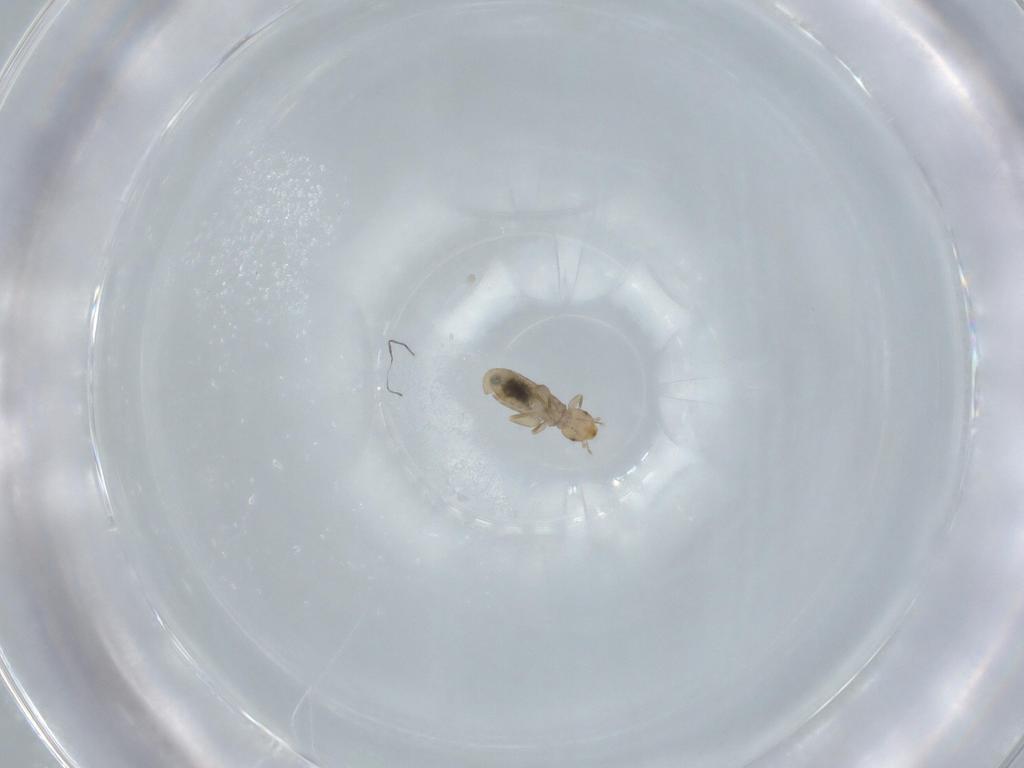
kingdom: Animalia
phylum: Arthropoda
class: Insecta
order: Psocodea
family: Liposcelididae
